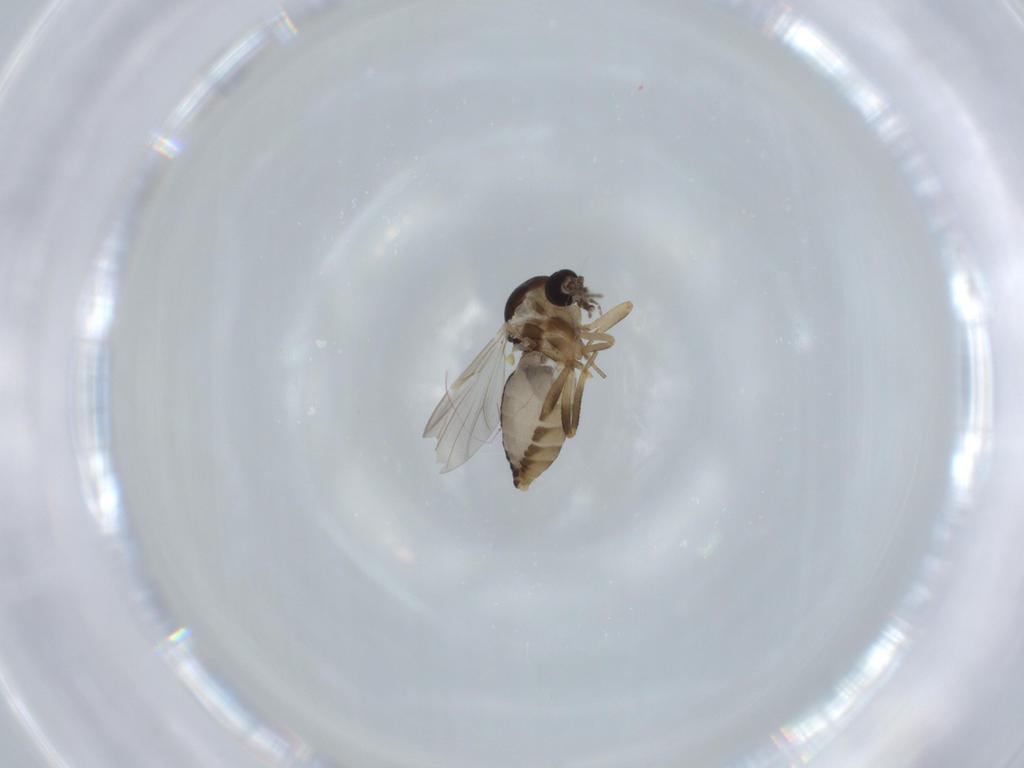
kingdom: Animalia
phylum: Arthropoda
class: Insecta
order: Diptera
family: Ceratopogonidae
